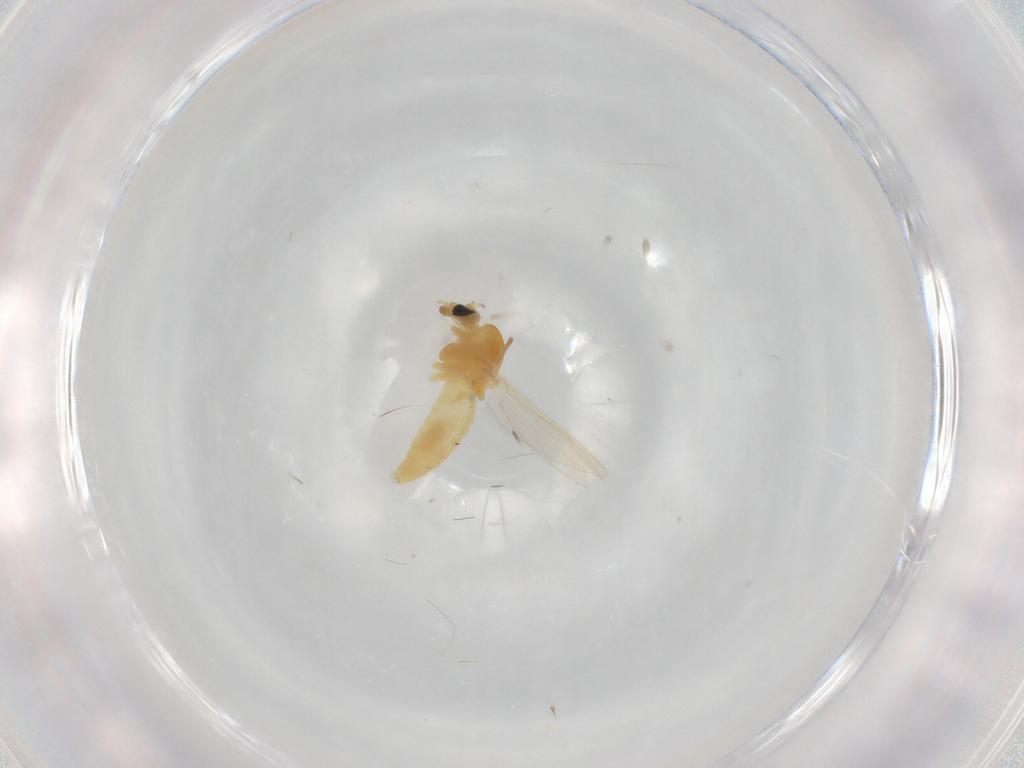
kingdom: Animalia
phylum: Arthropoda
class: Insecta
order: Diptera
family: Chironomidae
